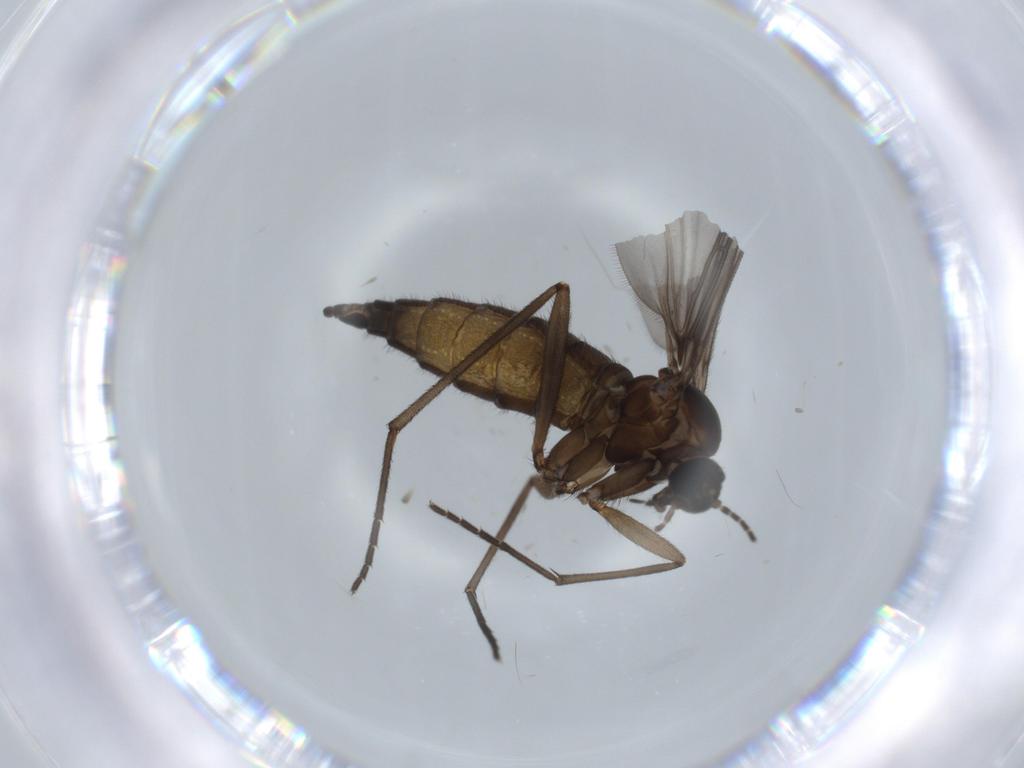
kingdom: Animalia
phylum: Arthropoda
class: Insecta
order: Diptera
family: Sciaridae
